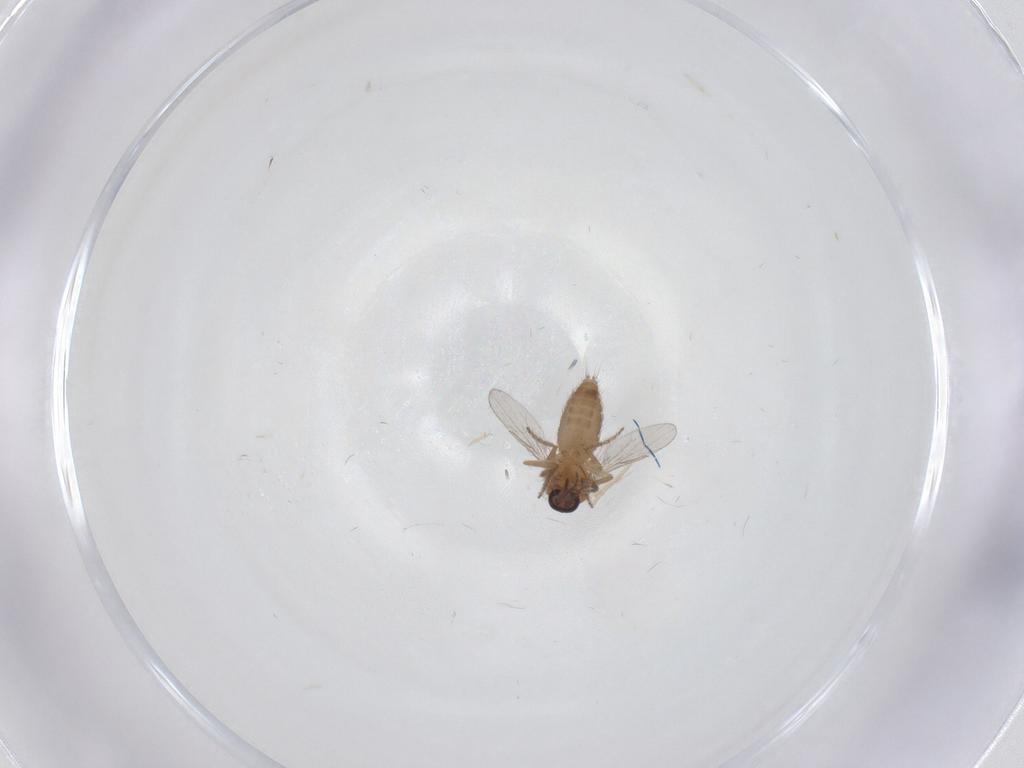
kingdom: Animalia
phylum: Arthropoda
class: Insecta
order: Diptera
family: Ceratopogonidae
